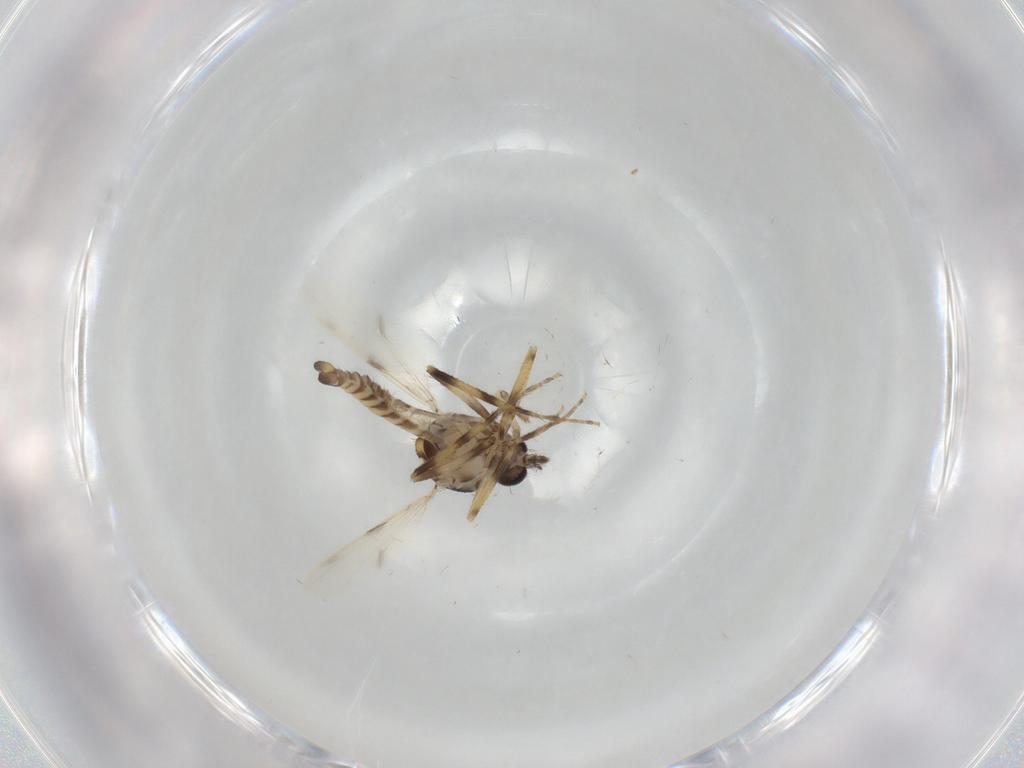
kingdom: Animalia
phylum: Arthropoda
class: Insecta
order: Diptera
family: Ceratopogonidae
